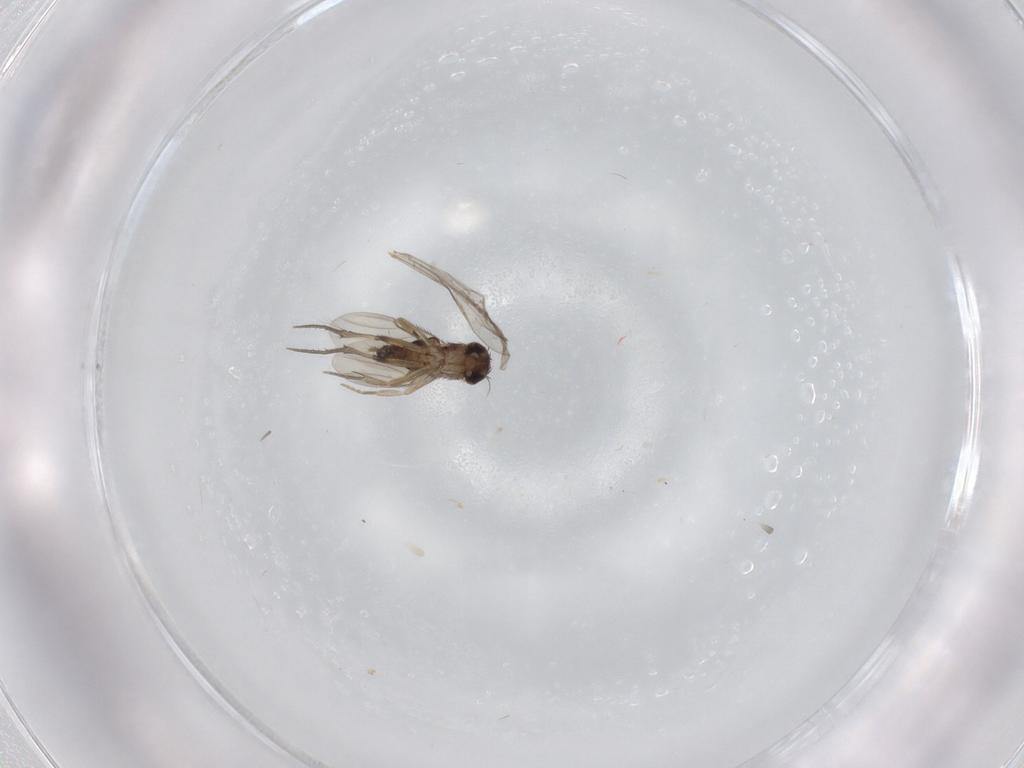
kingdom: Animalia
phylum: Arthropoda
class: Insecta
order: Diptera
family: Phoridae
